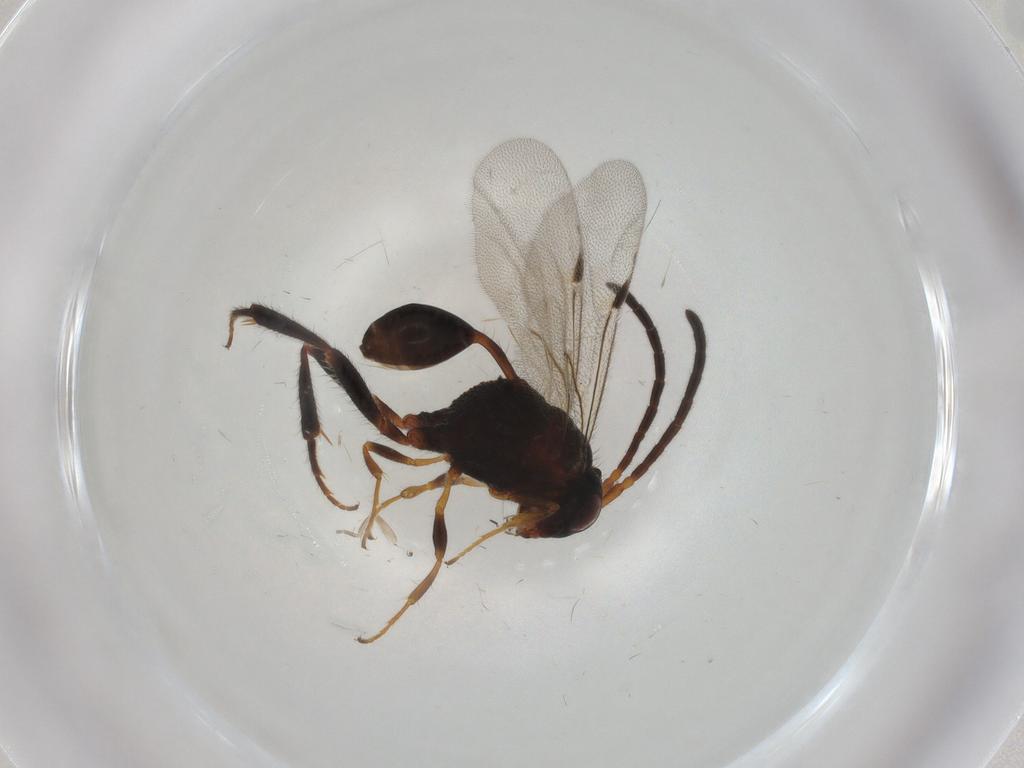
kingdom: Animalia
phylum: Arthropoda
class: Insecta
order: Hymenoptera
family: Evaniidae
